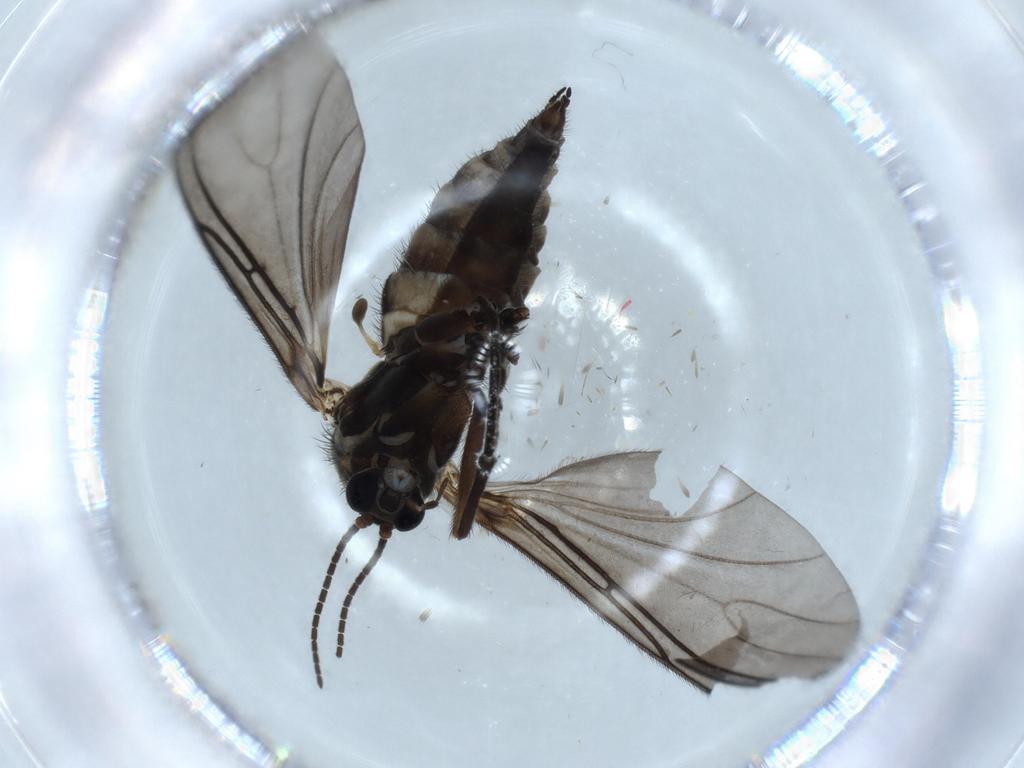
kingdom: Animalia
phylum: Arthropoda
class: Insecta
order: Diptera
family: Sciaridae
